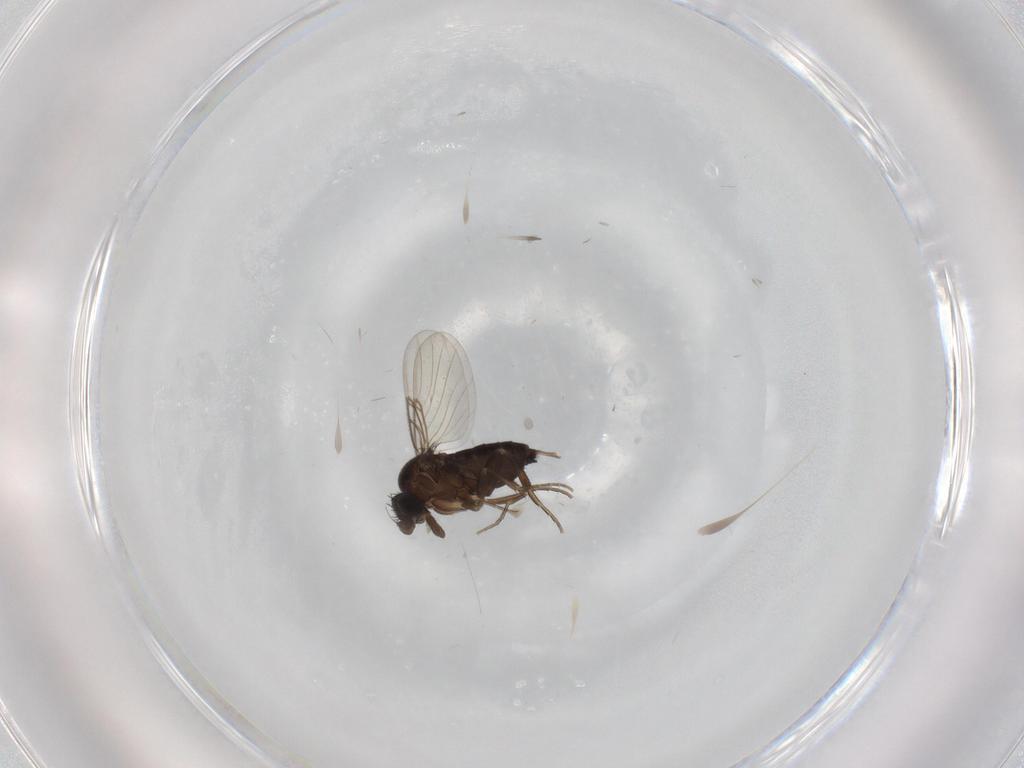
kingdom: Animalia
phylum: Arthropoda
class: Insecta
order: Diptera
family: Phoridae
